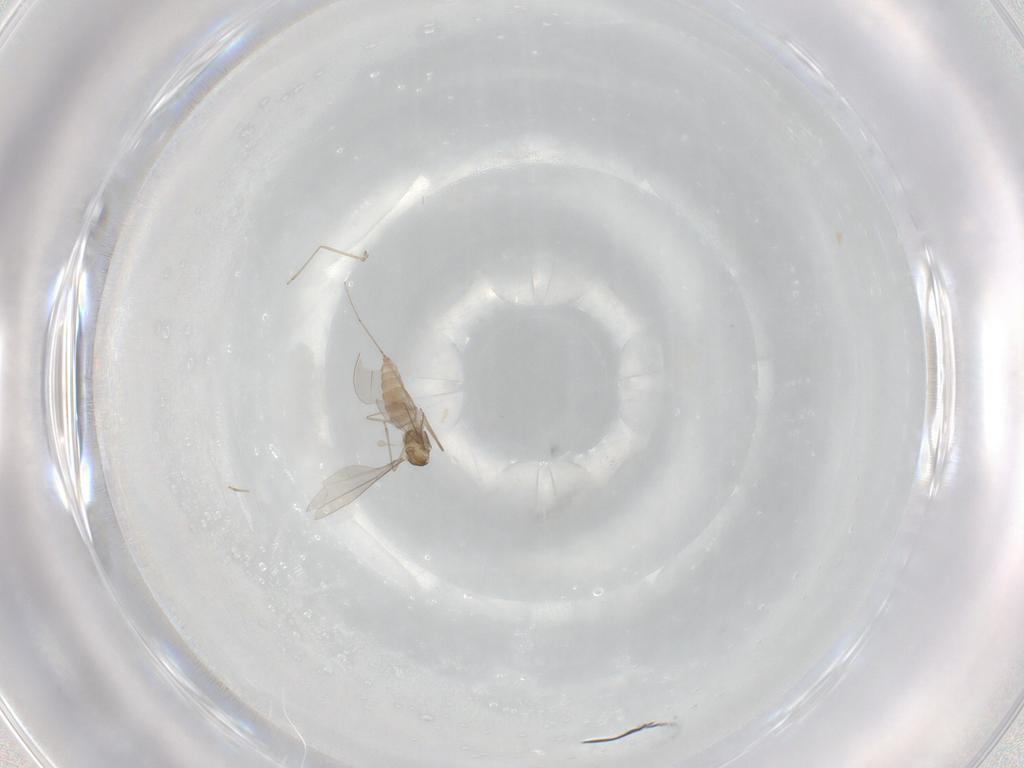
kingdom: Animalia
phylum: Arthropoda
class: Insecta
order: Diptera
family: Cecidomyiidae
